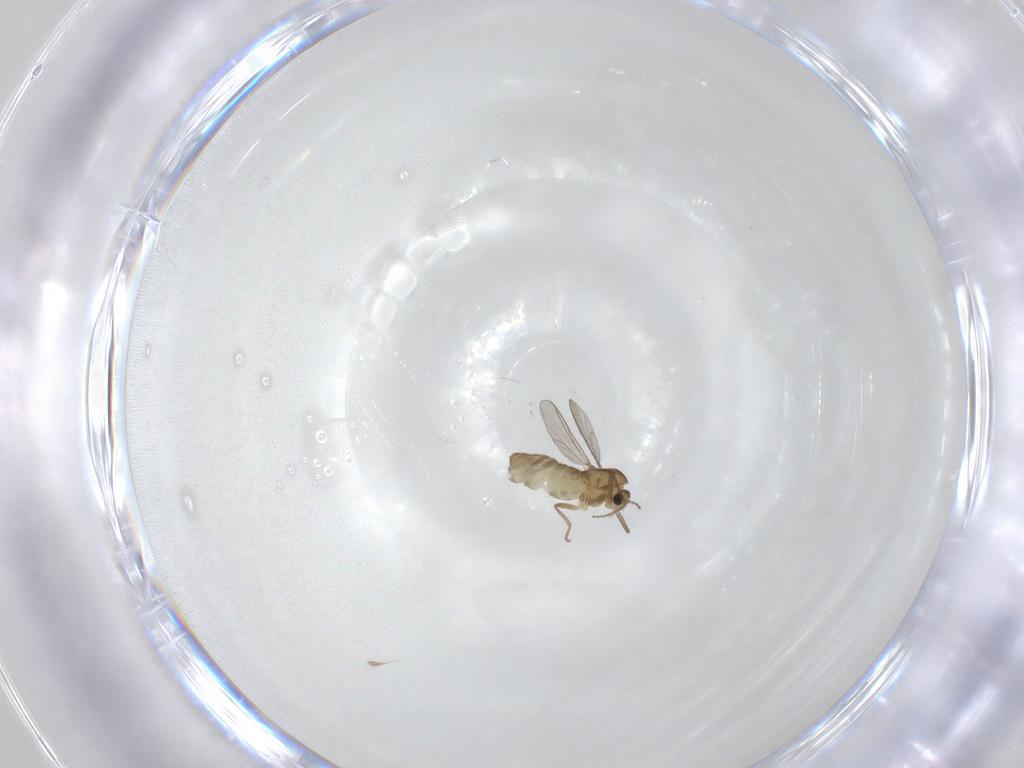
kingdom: Animalia
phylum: Arthropoda
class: Insecta
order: Diptera
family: Chironomidae
